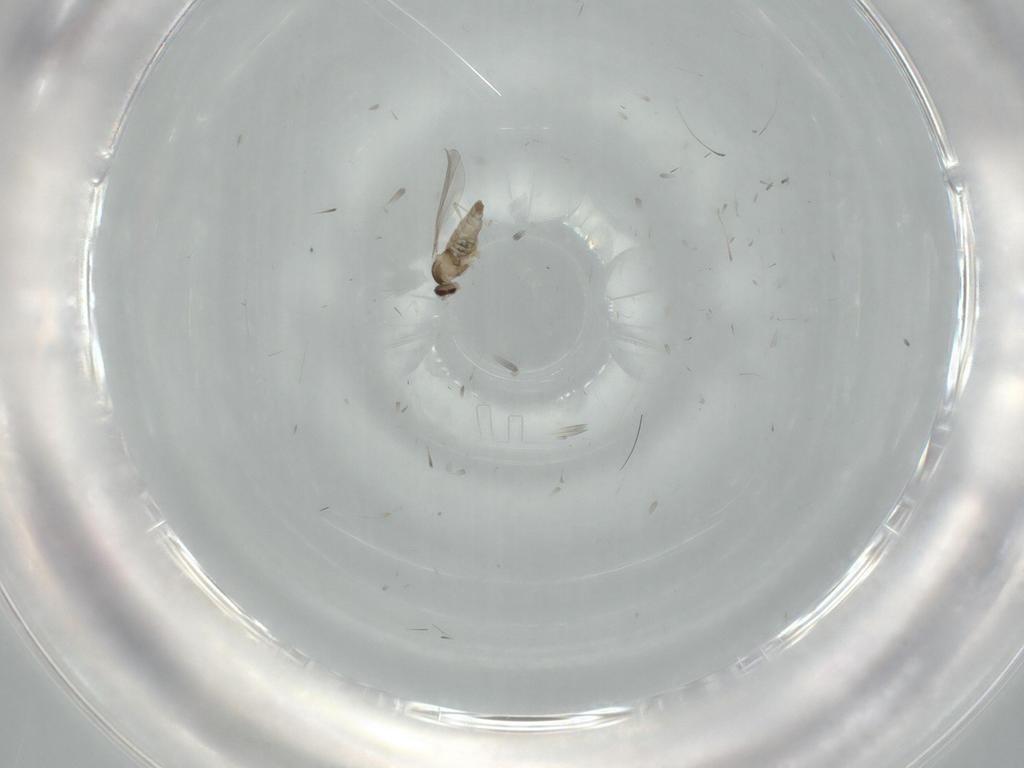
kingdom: Animalia
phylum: Arthropoda
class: Insecta
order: Diptera
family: Cecidomyiidae
